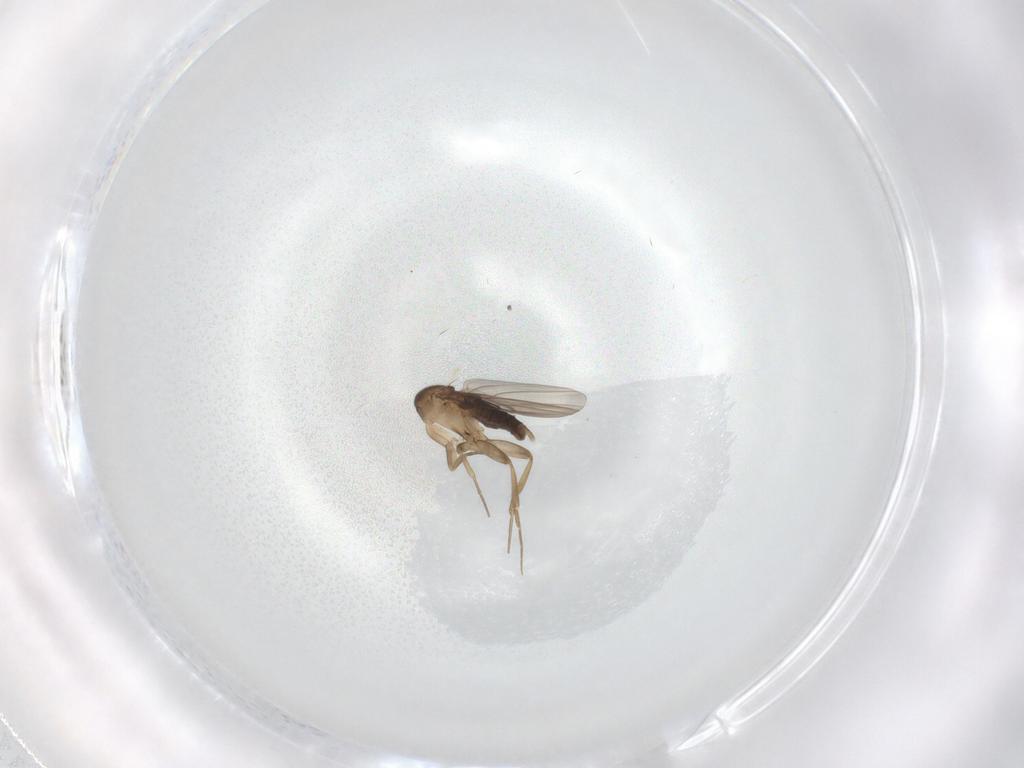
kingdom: Animalia
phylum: Arthropoda
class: Insecta
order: Diptera
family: Phoridae
